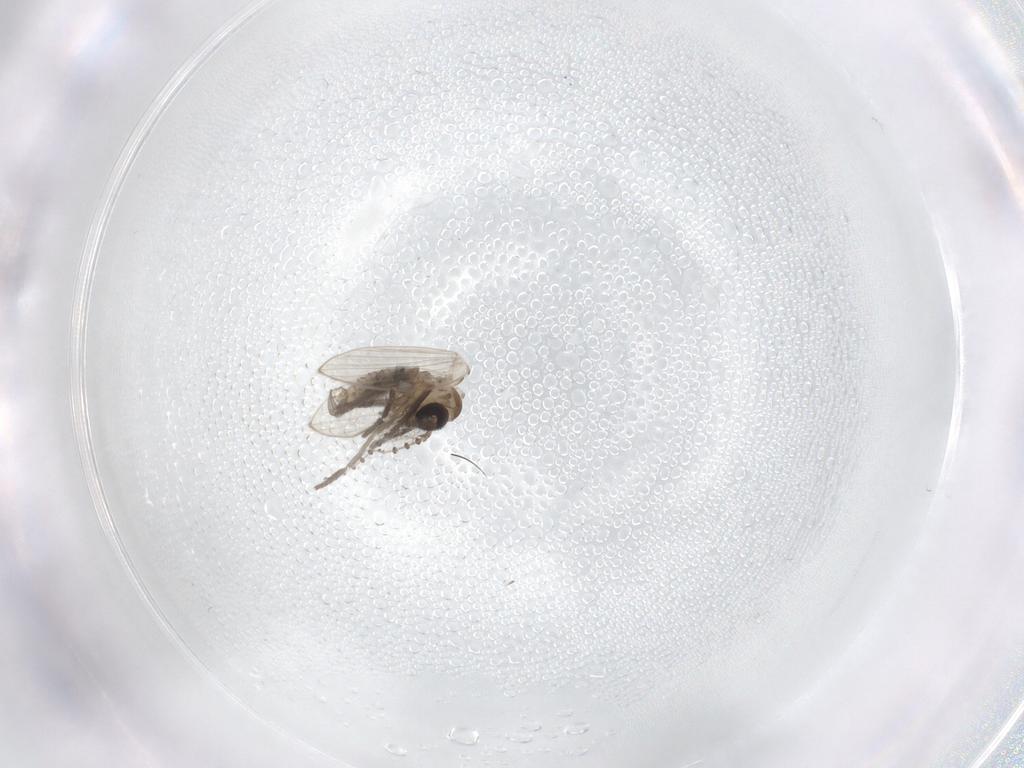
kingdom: Animalia
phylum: Arthropoda
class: Insecta
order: Diptera
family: Psychodidae
